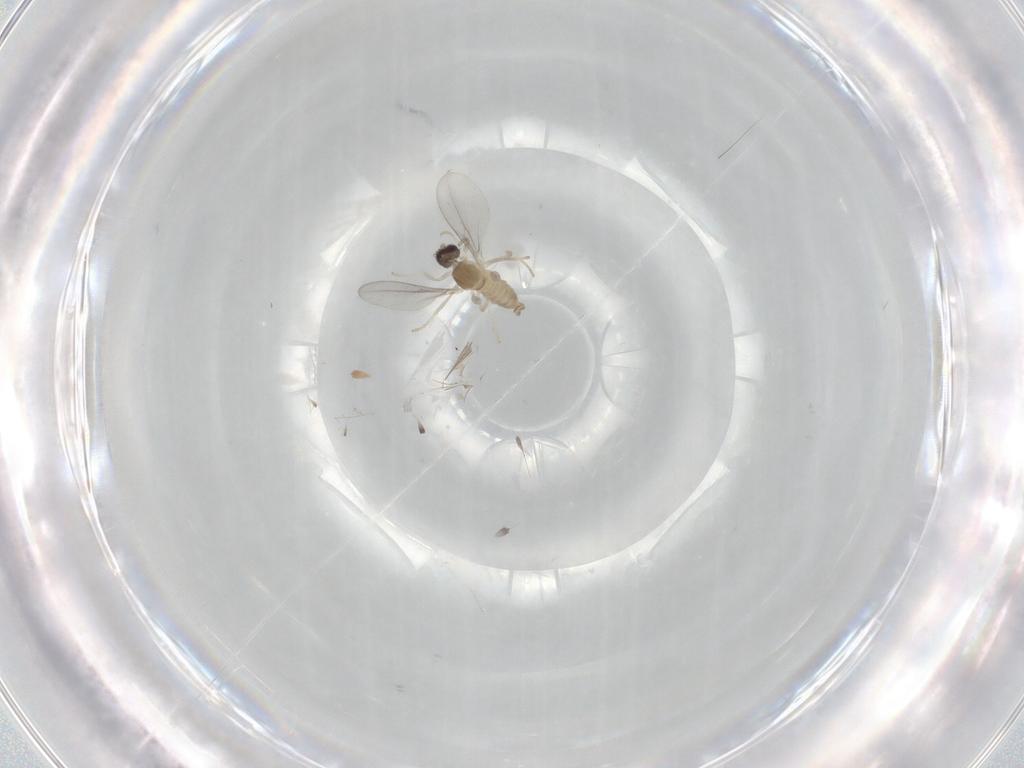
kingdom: Animalia
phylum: Arthropoda
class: Insecta
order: Diptera
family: Cecidomyiidae
